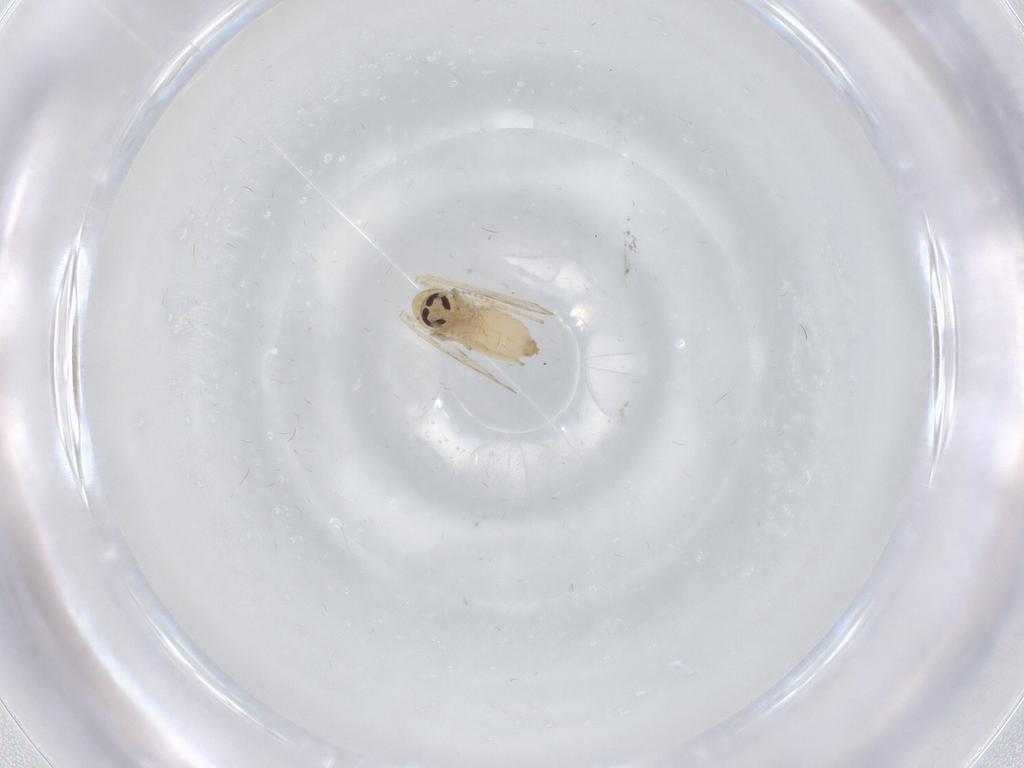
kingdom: Animalia
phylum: Arthropoda
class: Insecta
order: Diptera
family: Psychodidae
